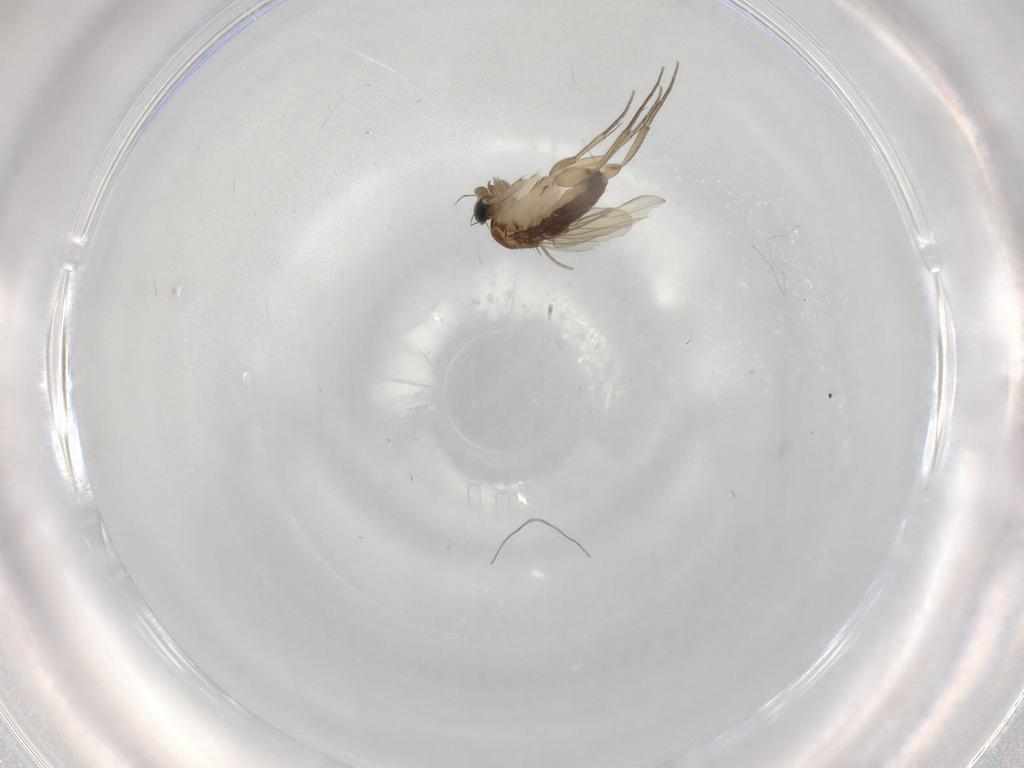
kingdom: Animalia
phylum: Arthropoda
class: Insecta
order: Diptera
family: Phoridae
